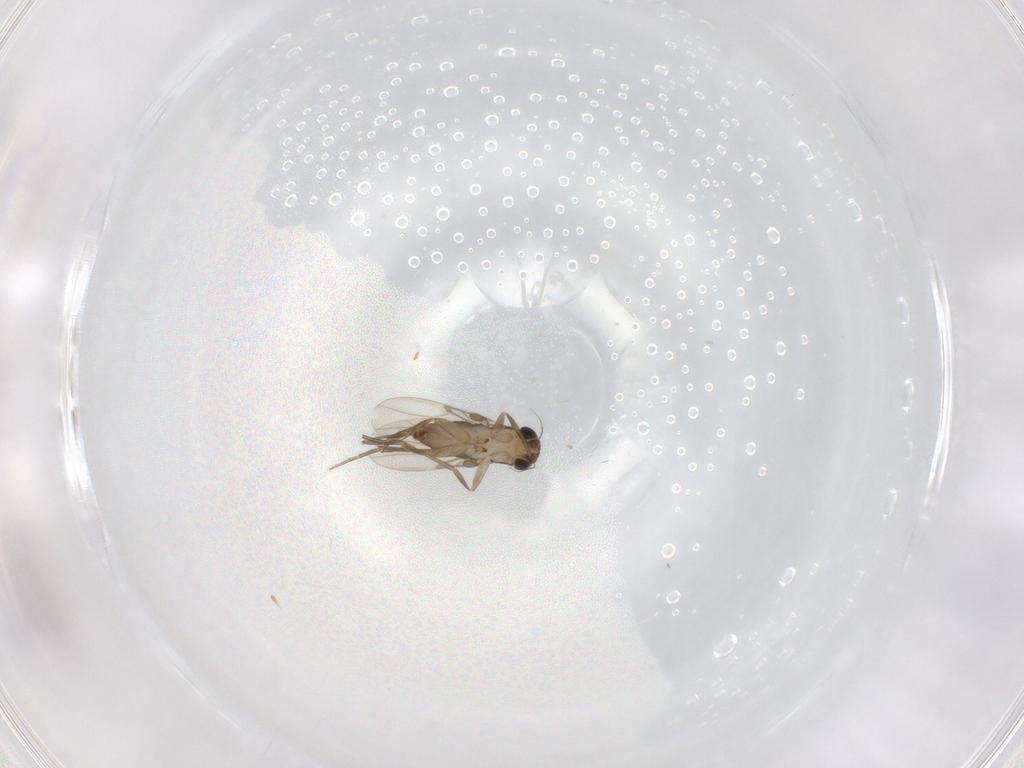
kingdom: Animalia
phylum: Arthropoda
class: Insecta
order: Diptera
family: Phoridae
